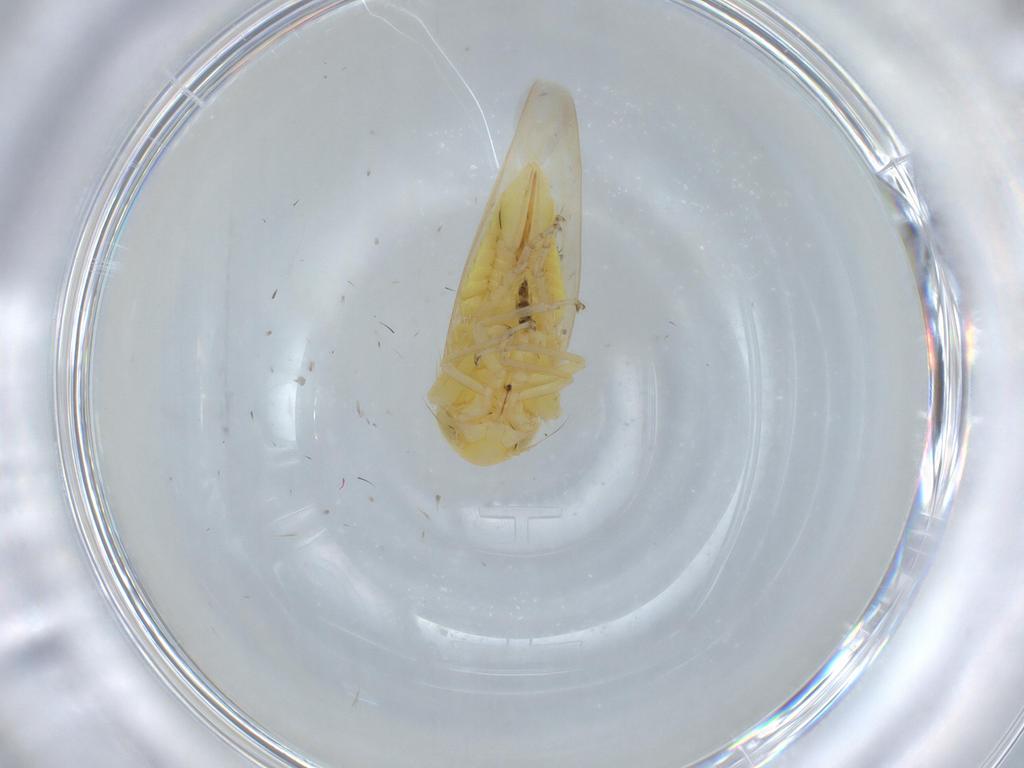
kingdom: Animalia
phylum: Arthropoda
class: Insecta
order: Hemiptera
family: Cicadellidae
